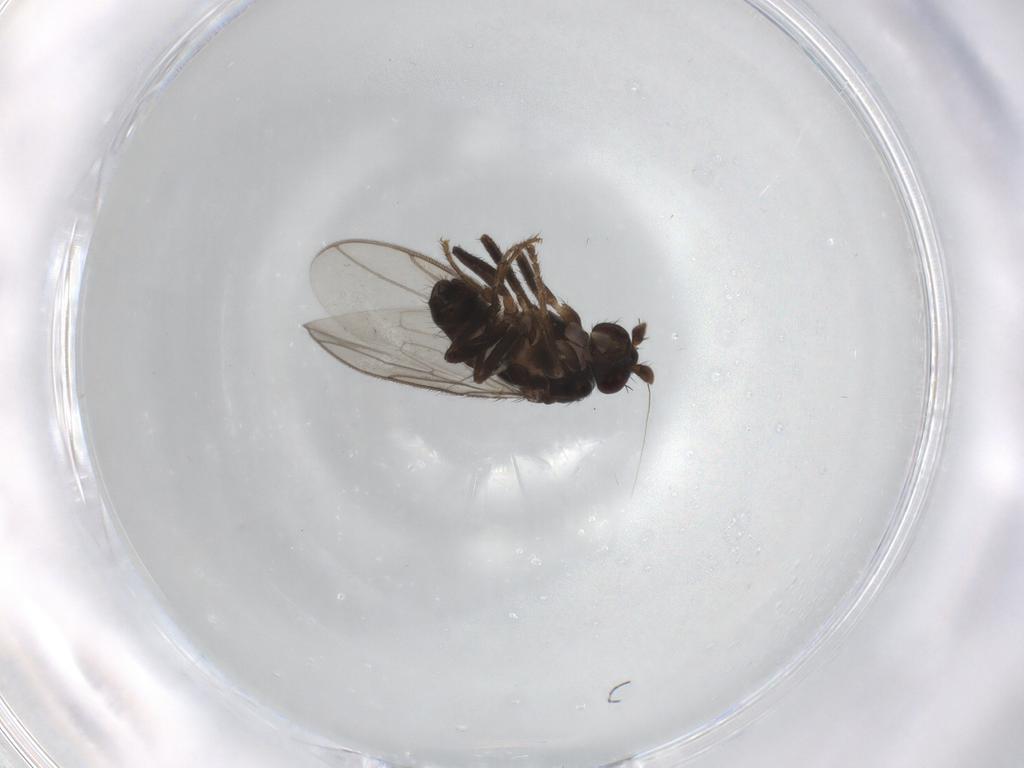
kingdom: Animalia
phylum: Arthropoda
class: Insecta
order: Diptera
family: Sphaeroceridae
